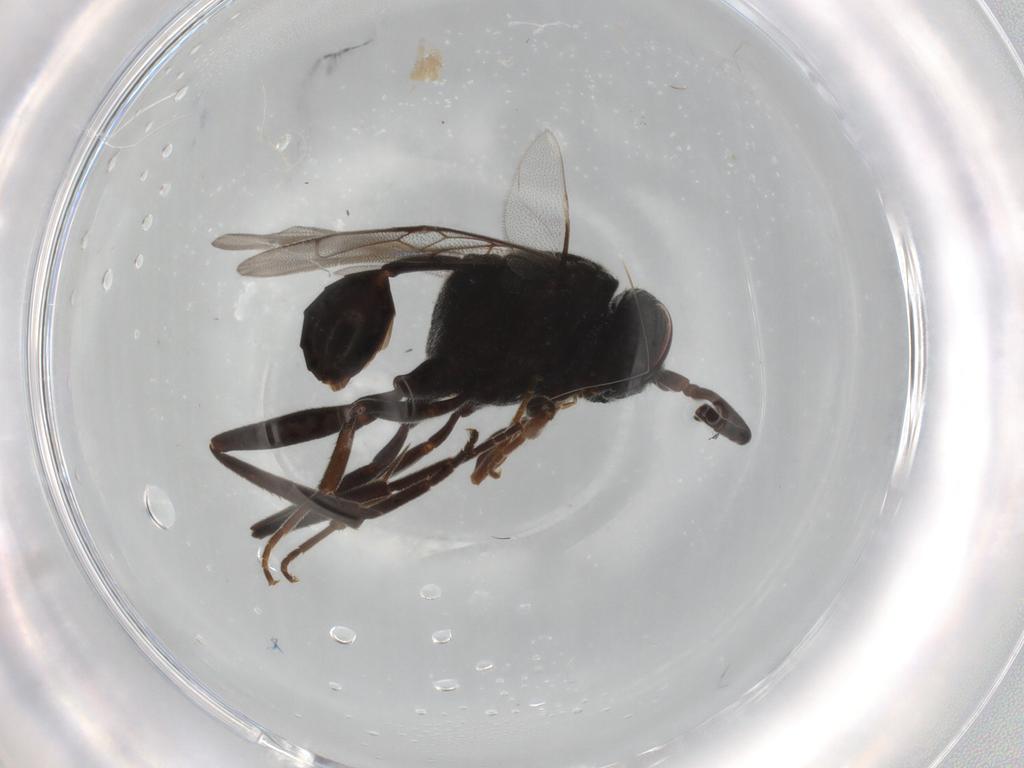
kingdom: Animalia
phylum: Arthropoda
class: Insecta
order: Hymenoptera
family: Evaniidae
